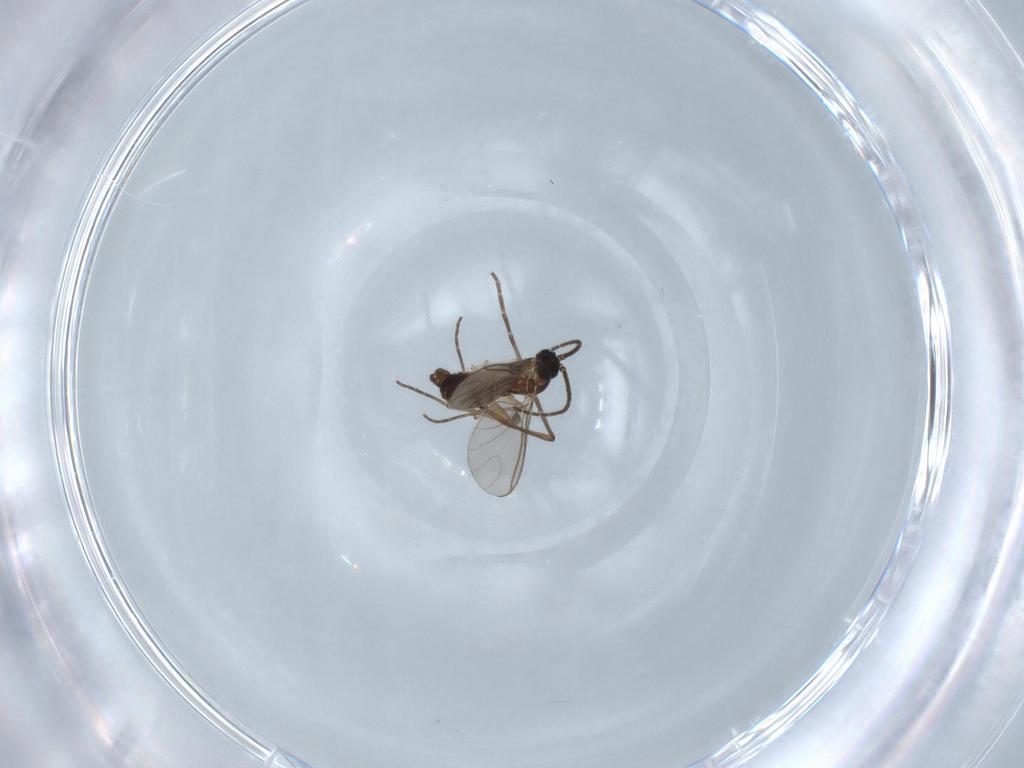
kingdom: Animalia
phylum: Arthropoda
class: Insecta
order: Diptera
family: Sciaridae
